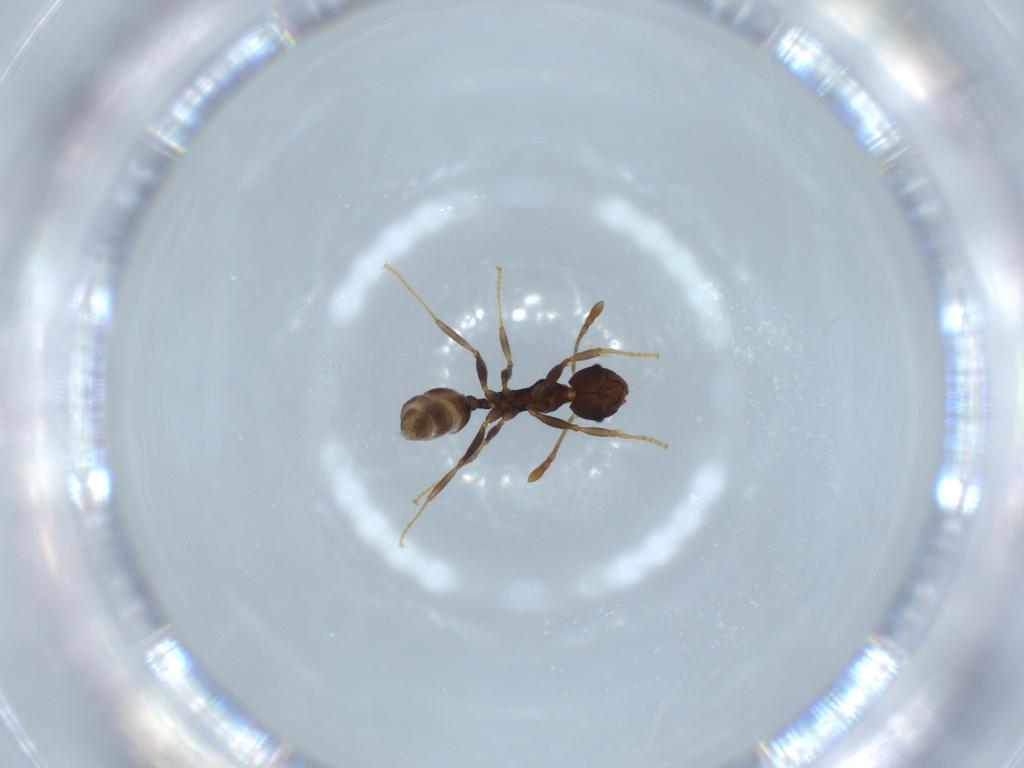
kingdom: Animalia
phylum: Arthropoda
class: Insecta
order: Hymenoptera
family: Formicidae
